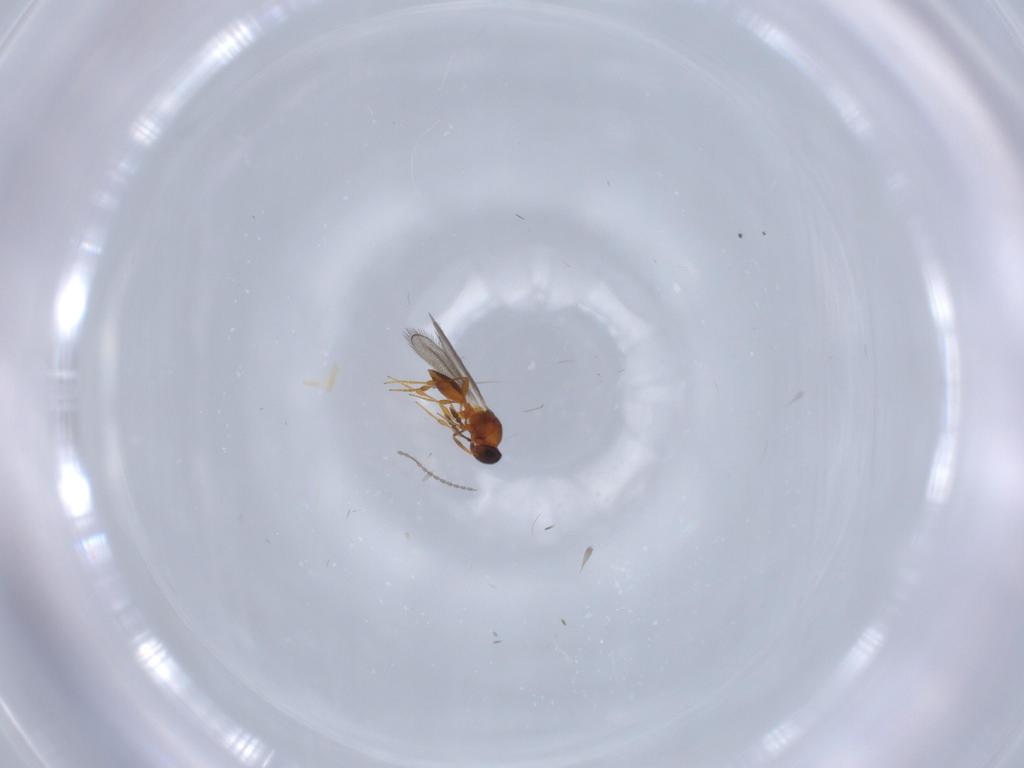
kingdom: Animalia
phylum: Arthropoda
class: Insecta
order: Hymenoptera
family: Platygastridae
